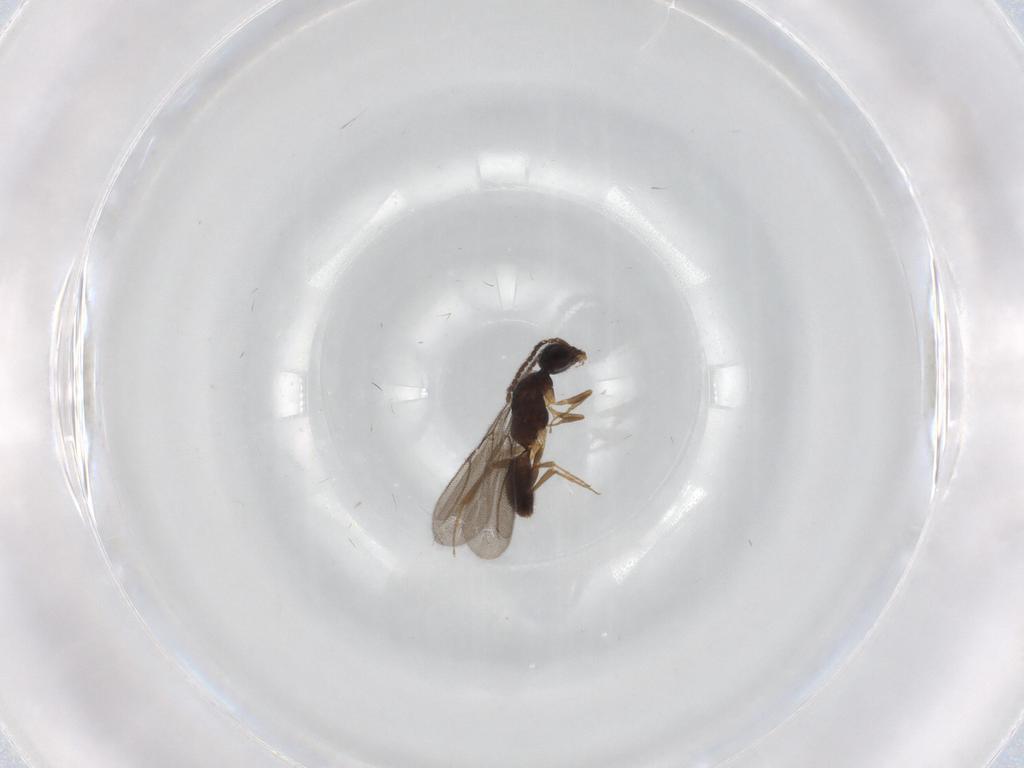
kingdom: Animalia
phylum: Arthropoda
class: Insecta
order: Hymenoptera
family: Bethylidae
